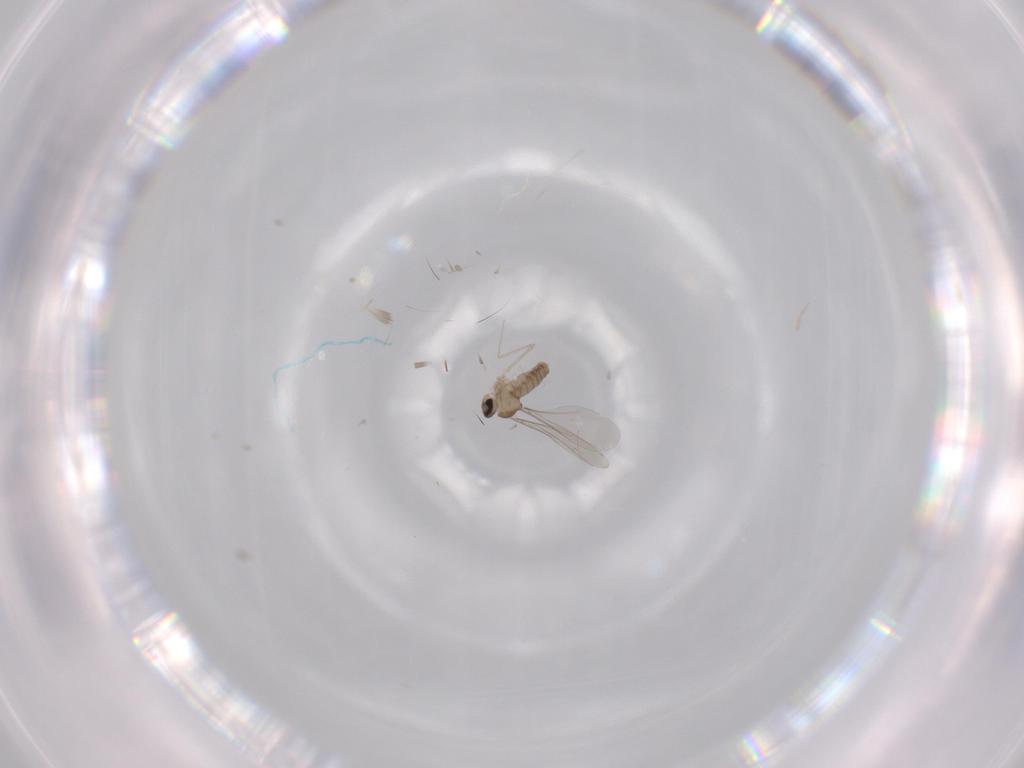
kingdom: Animalia
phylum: Arthropoda
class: Insecta
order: Diptera
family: Cecidomyiidae
